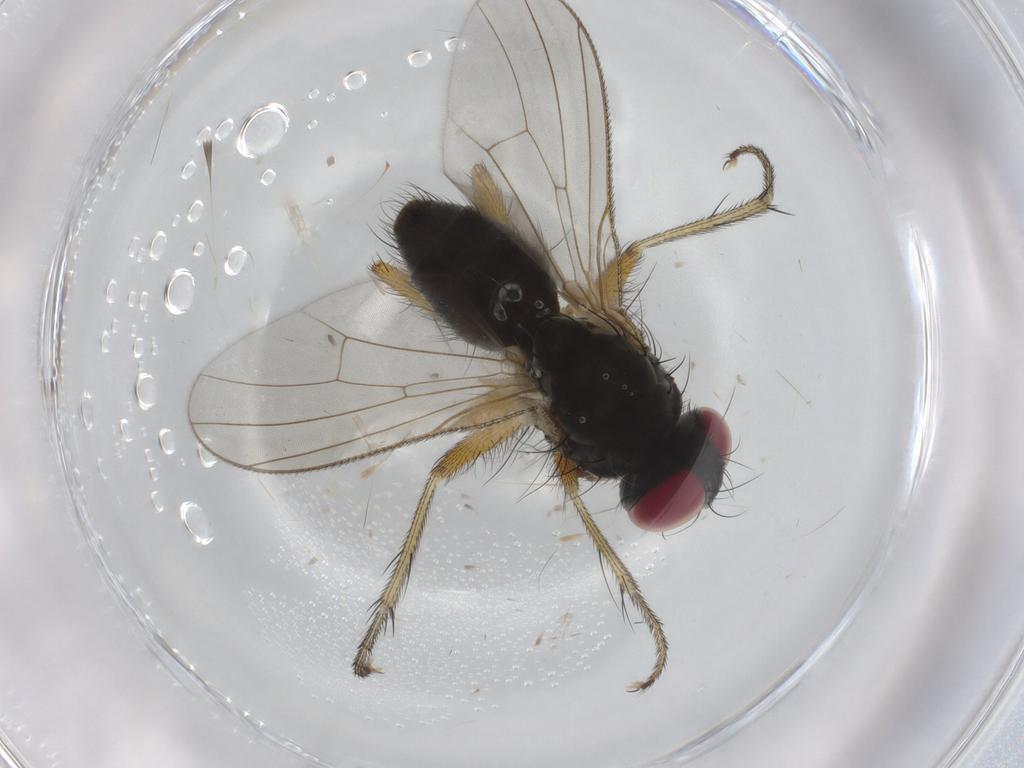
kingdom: Animalia
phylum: Arthropoda
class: Insecta
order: Diptera
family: Muscidae
